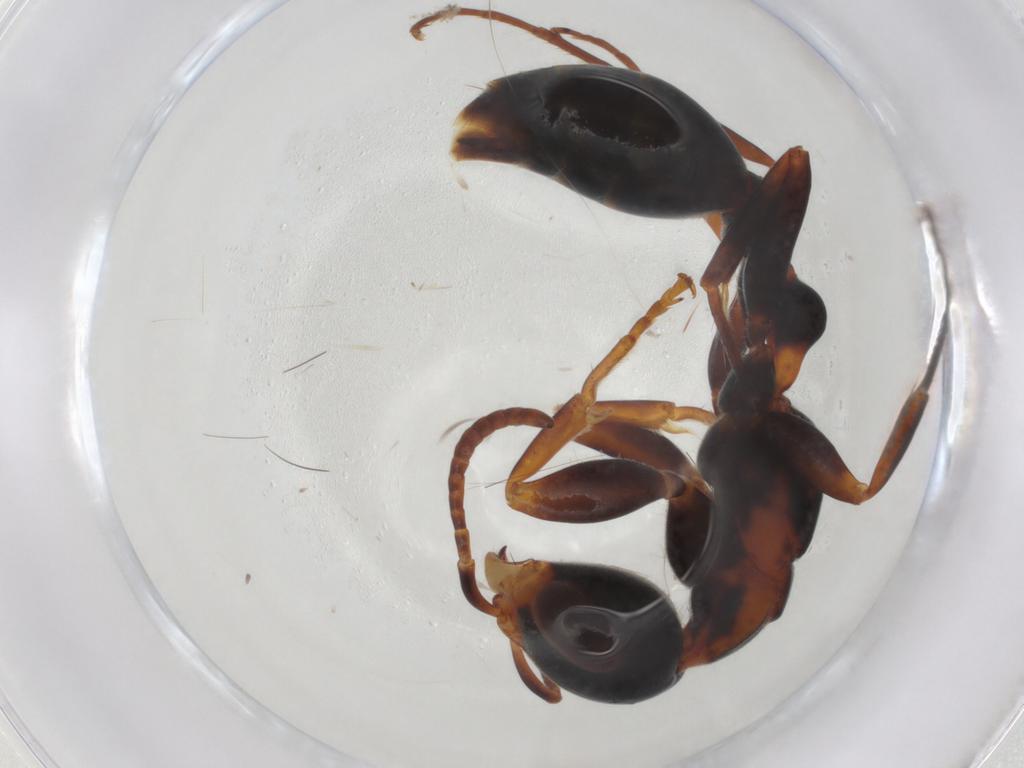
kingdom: Animalia
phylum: Arthropoda
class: Insecta
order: Hymenoptera
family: Formicidae
